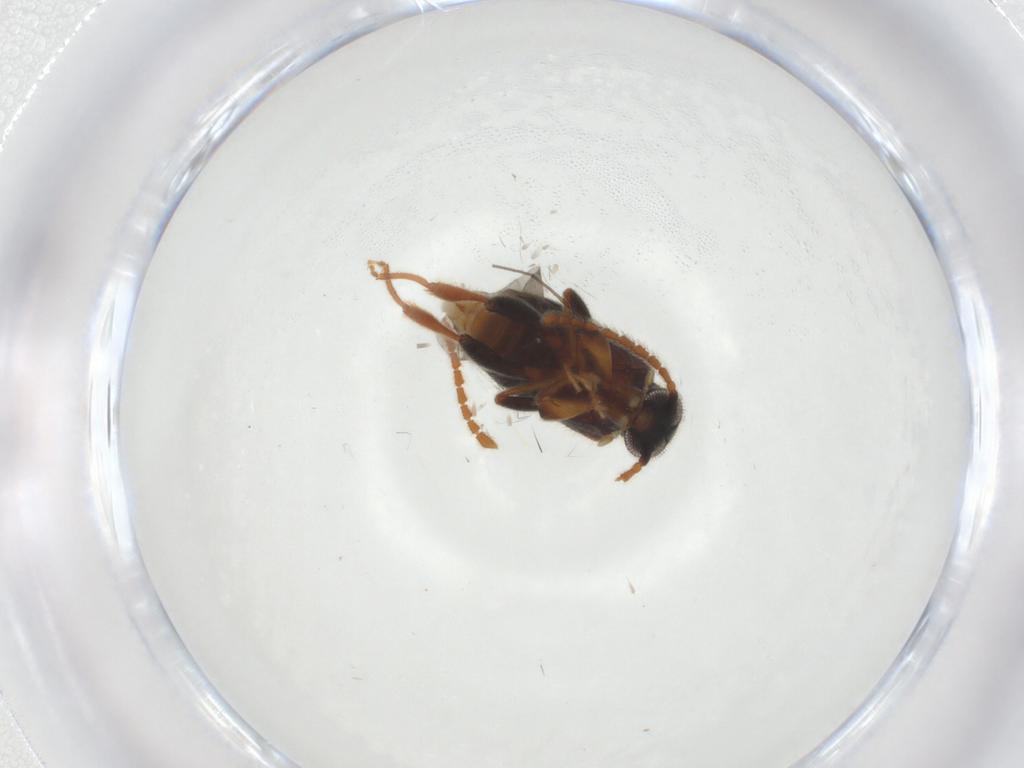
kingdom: Animalia
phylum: Arthropoda
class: Insecta
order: Coleoptera
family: Aderidae
